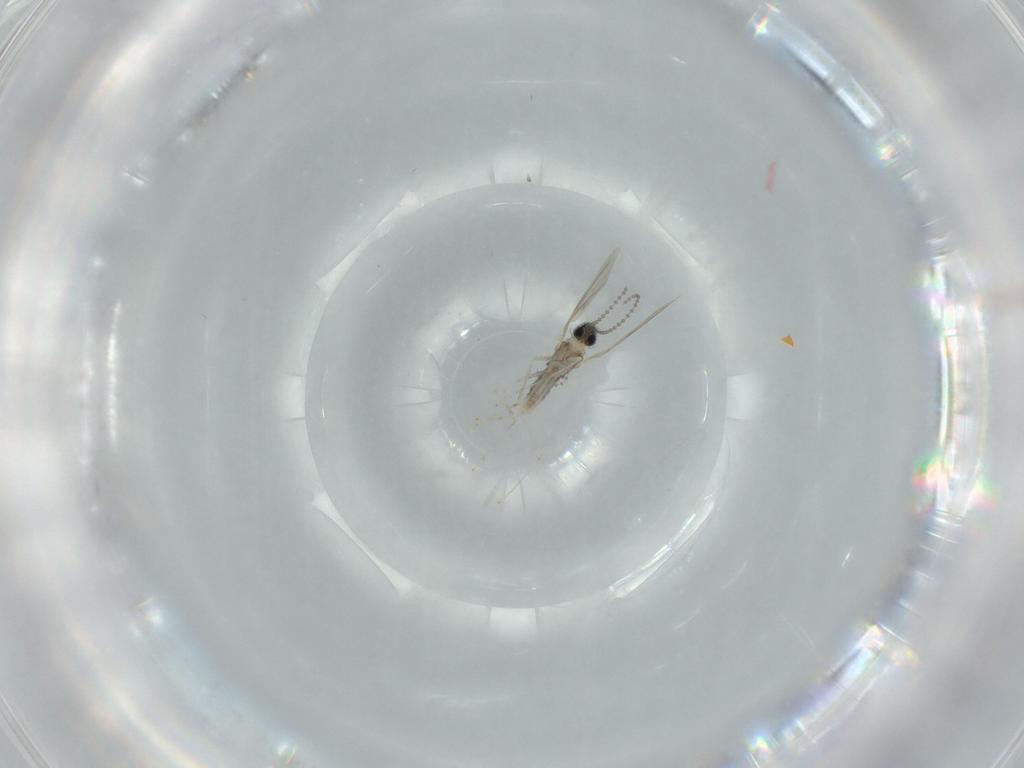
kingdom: Animalia
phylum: Arthropoda
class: Insecta
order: Diptera
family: Cecidomyiidae
